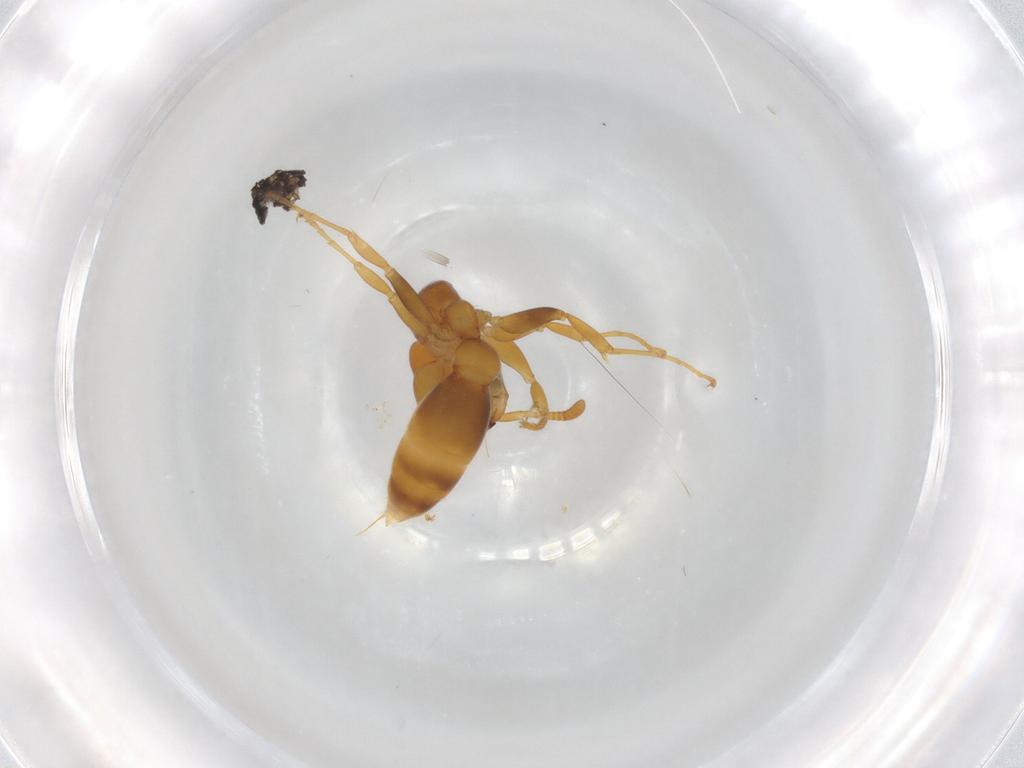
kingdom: Animalia
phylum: Arthropoda
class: Insecta
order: Hymenoptera
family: Formicidae
